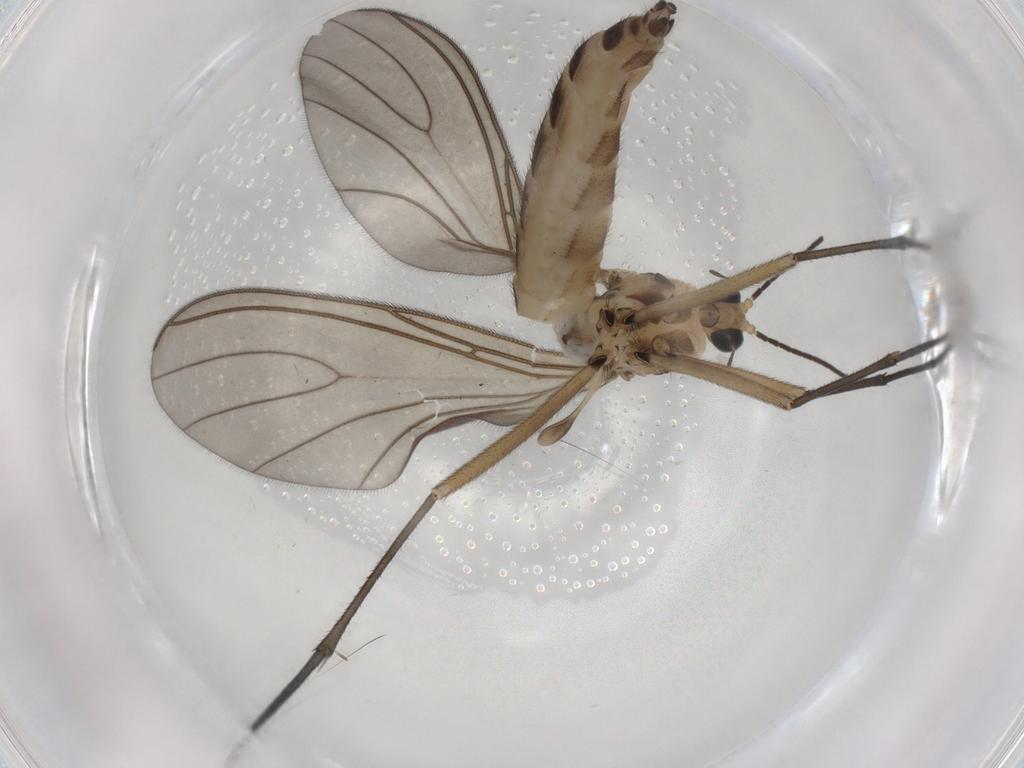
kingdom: Animalia
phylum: Arthropoda
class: Insecta
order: Diptera
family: Sciaridae
